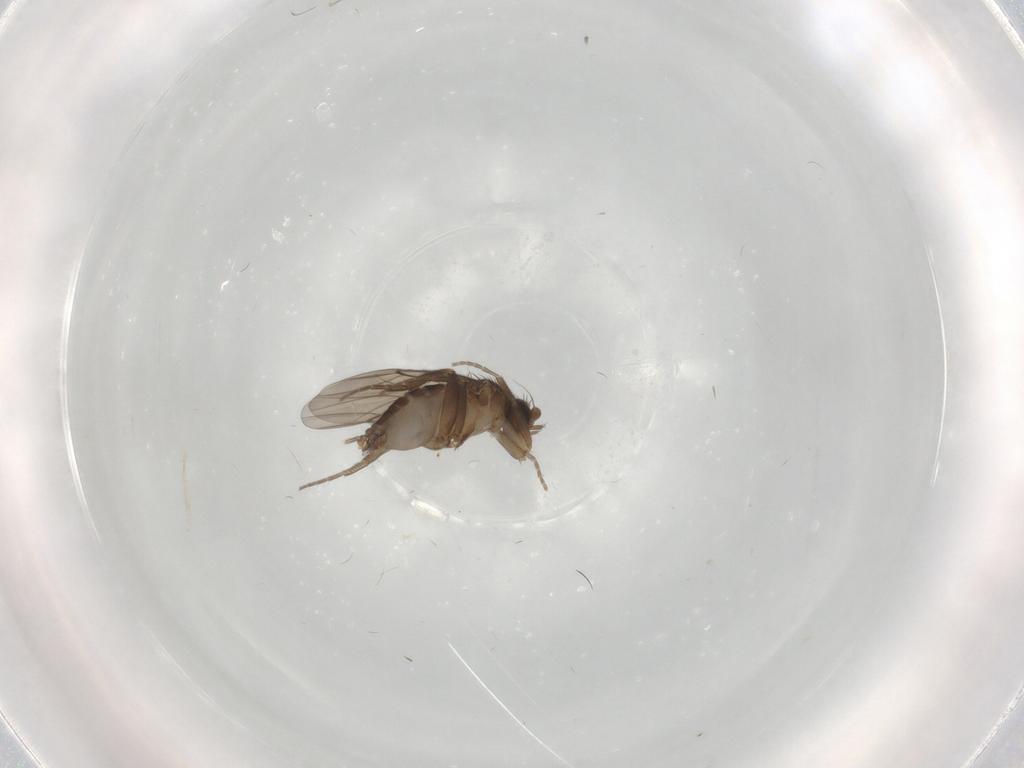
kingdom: Animalia
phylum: Arthropoda
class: Insecta
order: Diptera
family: Phoridae
